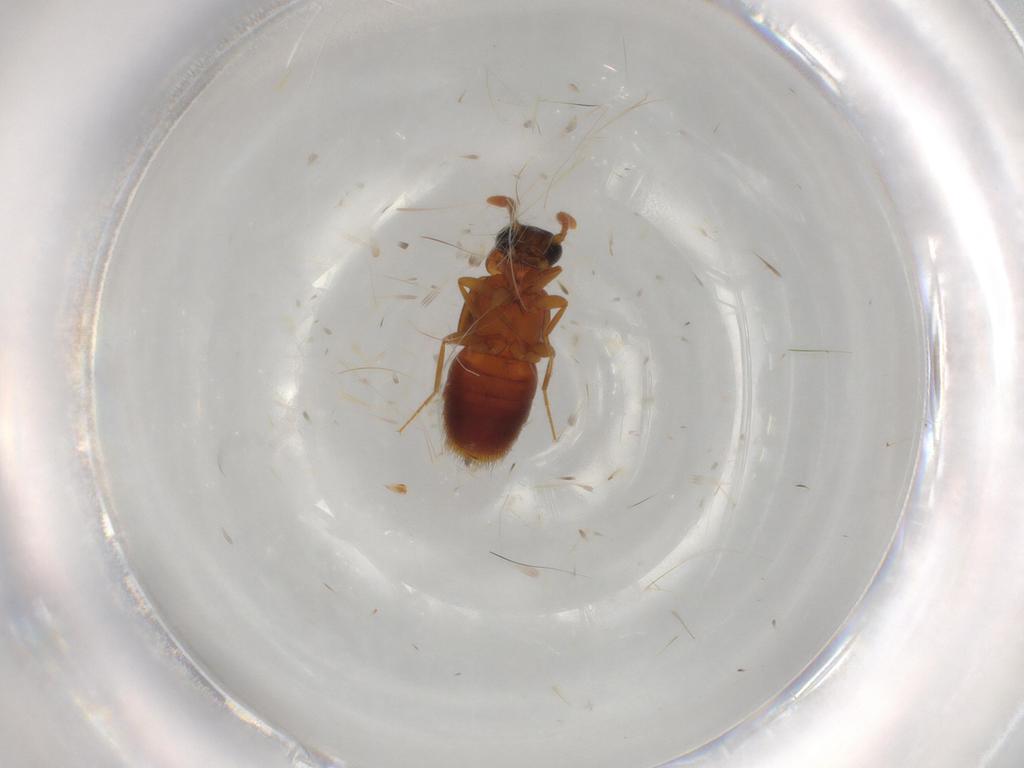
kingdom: Animalia
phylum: Arthropoda
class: Insecta
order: Coleoptera
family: Staphylinidae
